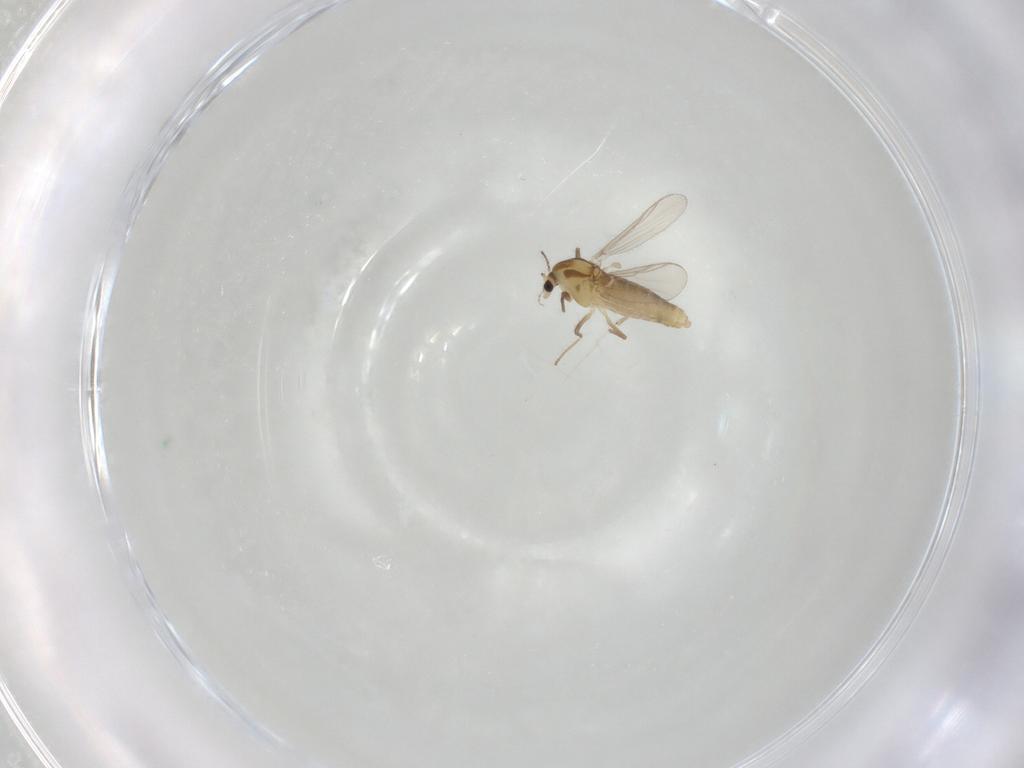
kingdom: Animalia
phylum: Arthropoda
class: Insecta
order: Diptera
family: Chironomidae
